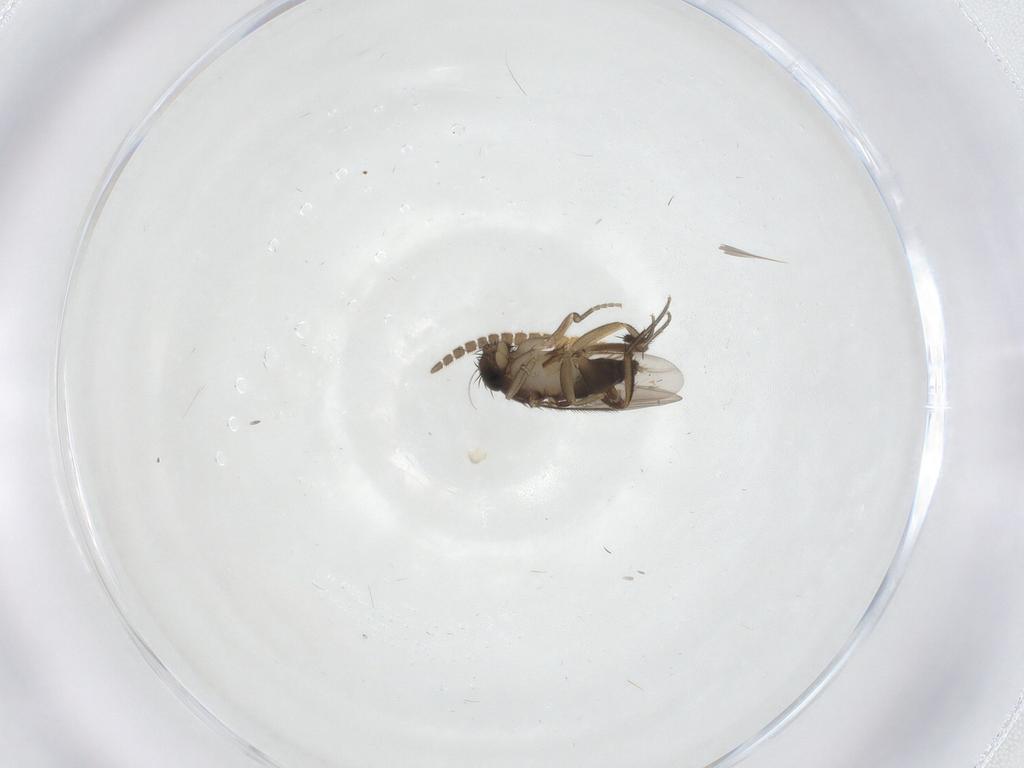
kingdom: Animalia
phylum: Arthropoda
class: Insecta
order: Diptera
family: Phoridae
